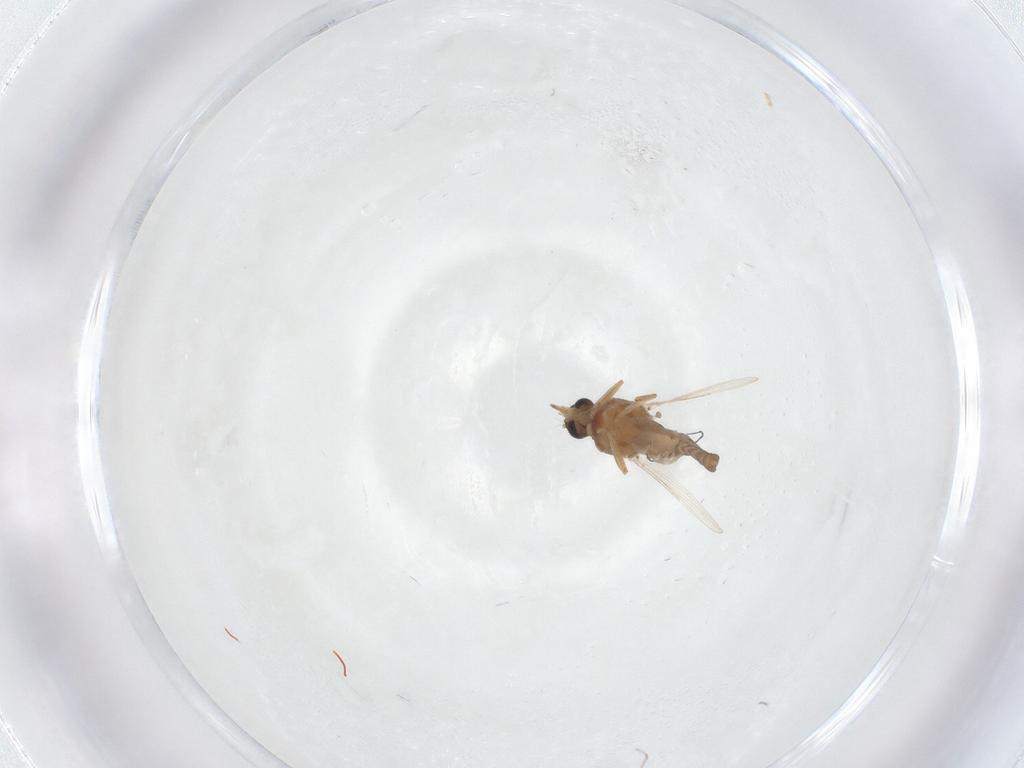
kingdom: Animalia
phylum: Arthropoda
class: Insecta
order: Diptera
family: Ceratopogonidae
